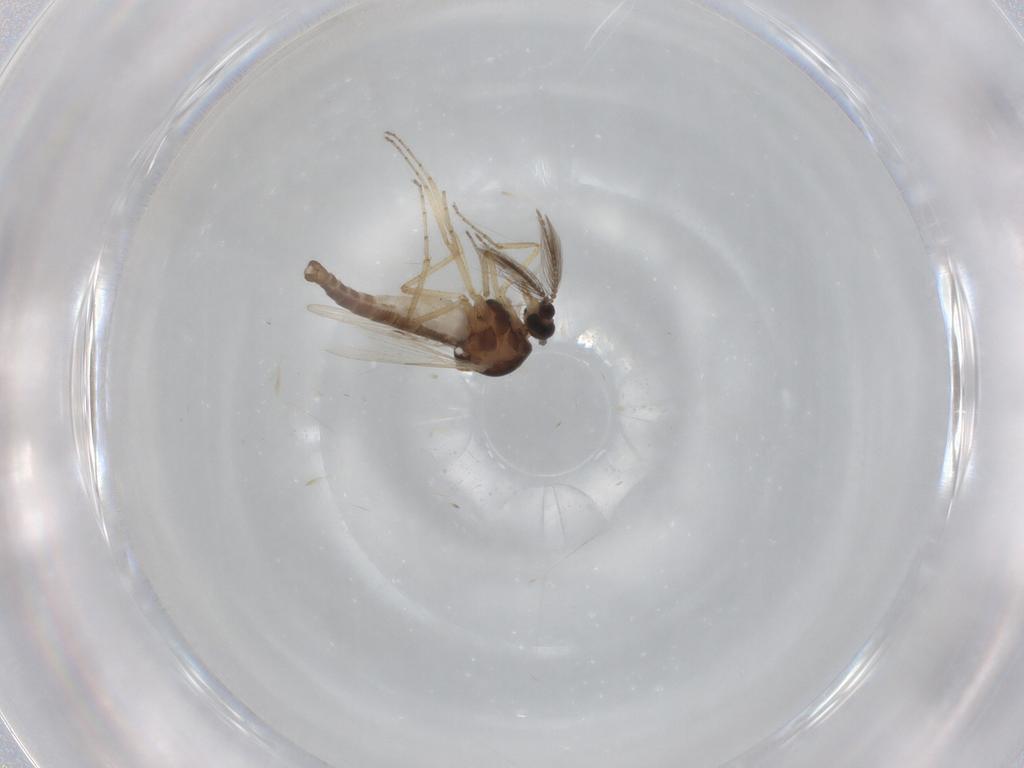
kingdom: Animalia
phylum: Arthropoda
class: Insecta
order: Diptera
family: Ceratopogonidae
